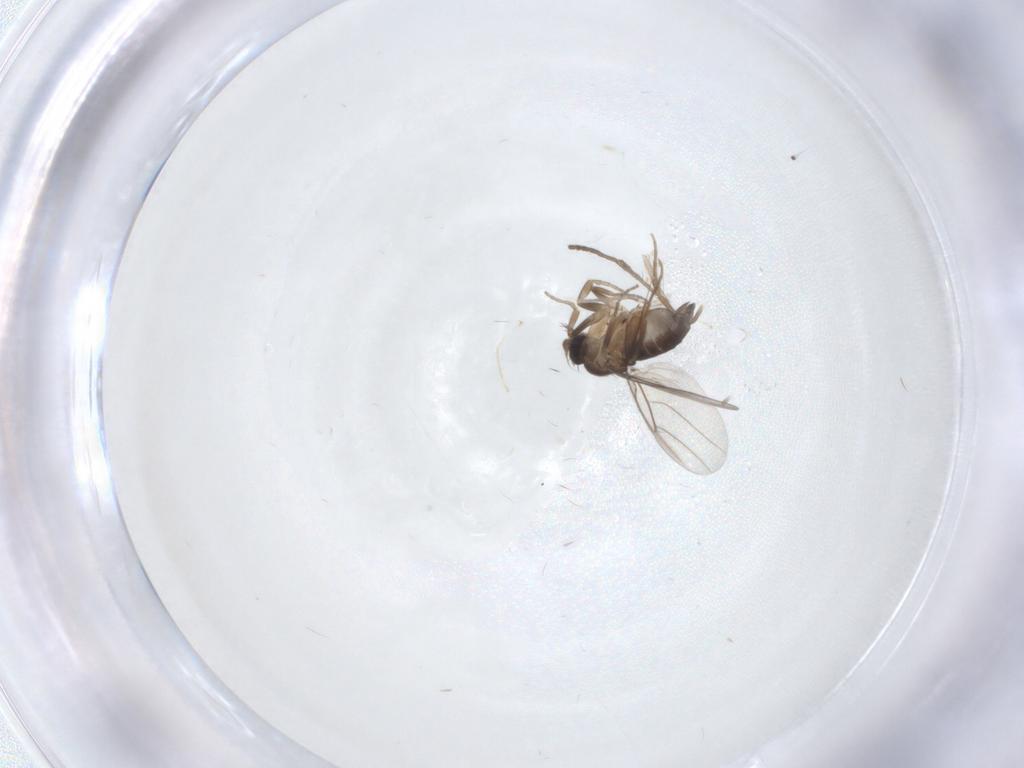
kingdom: Animalia
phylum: Arthropoda
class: Insecta
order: Diptera
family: Phoridae
